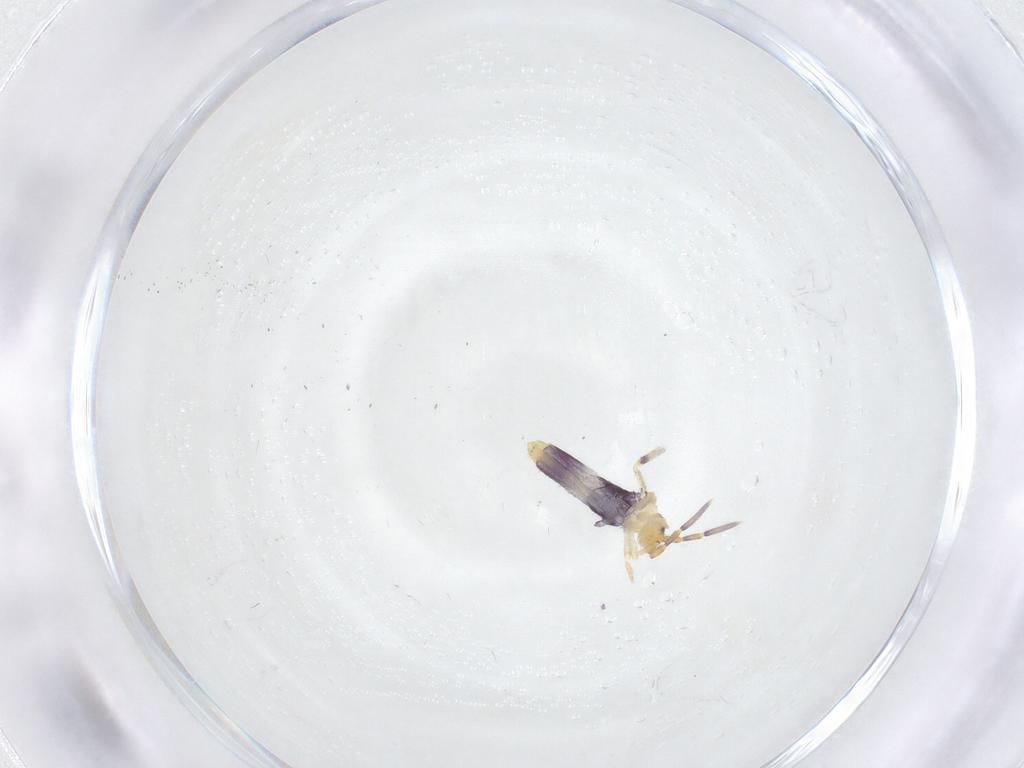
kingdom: Animalia
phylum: Arthropoda
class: Collembola
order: Entomobryomorpha
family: Entomobryidae
